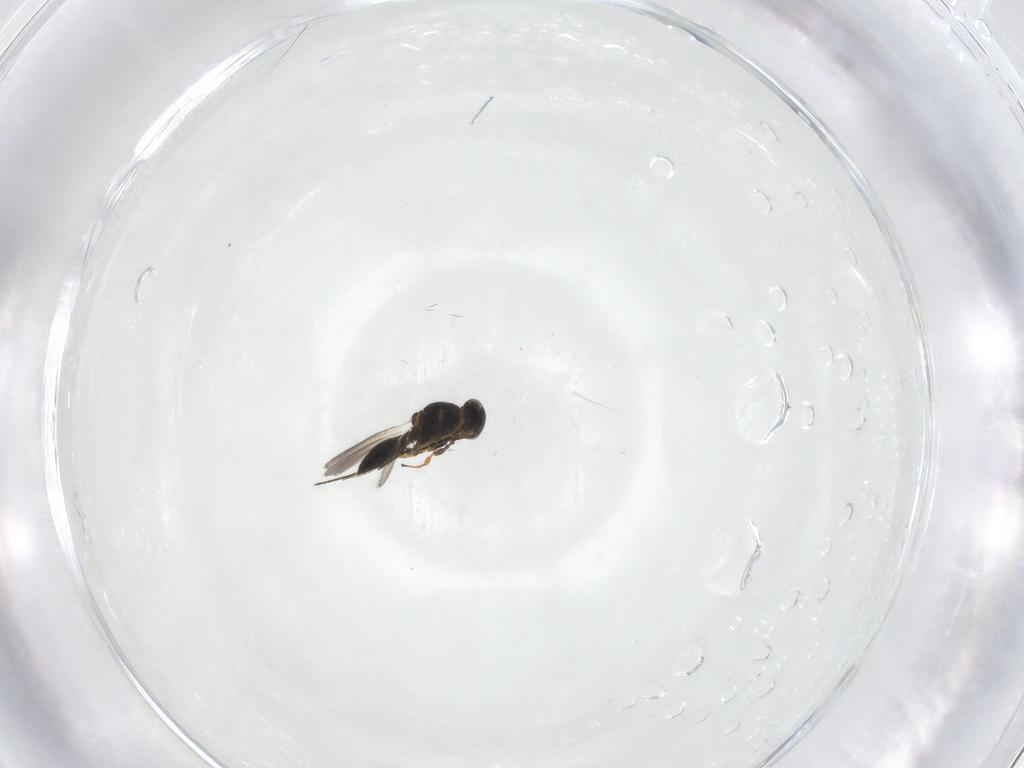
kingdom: Animalia
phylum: Arthropoda
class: Insecta
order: Hymenoptera
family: Platygastridae
